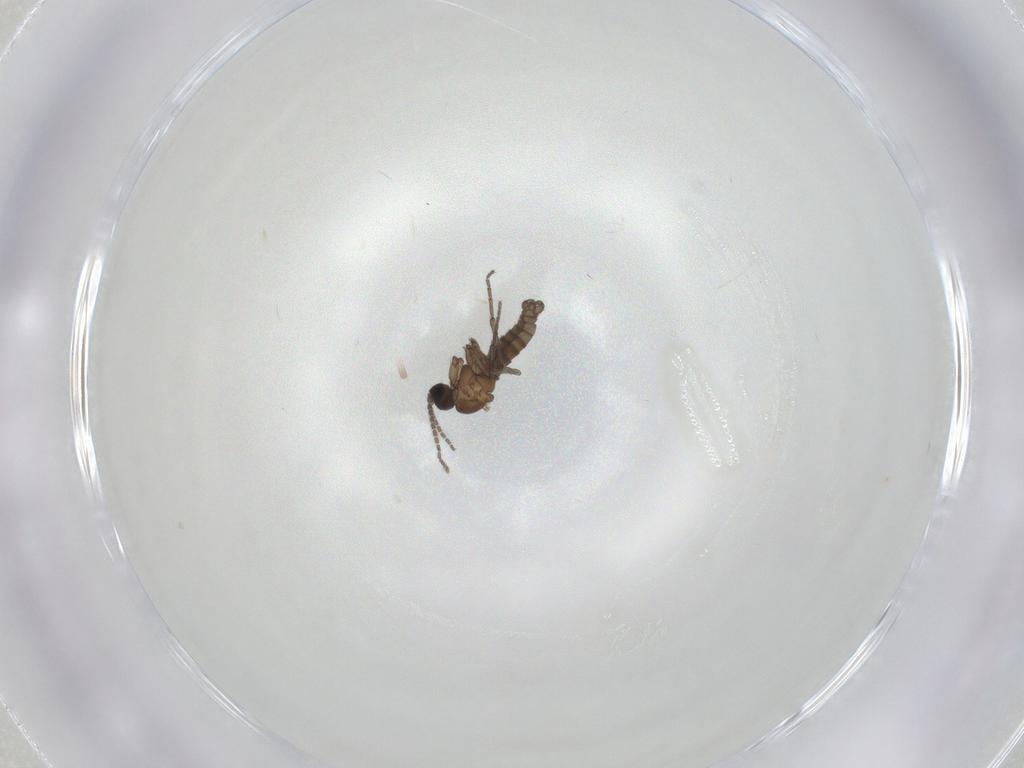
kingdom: Animalia
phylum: Arthropoda
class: Insecta
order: Diptera
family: Sciaridae
